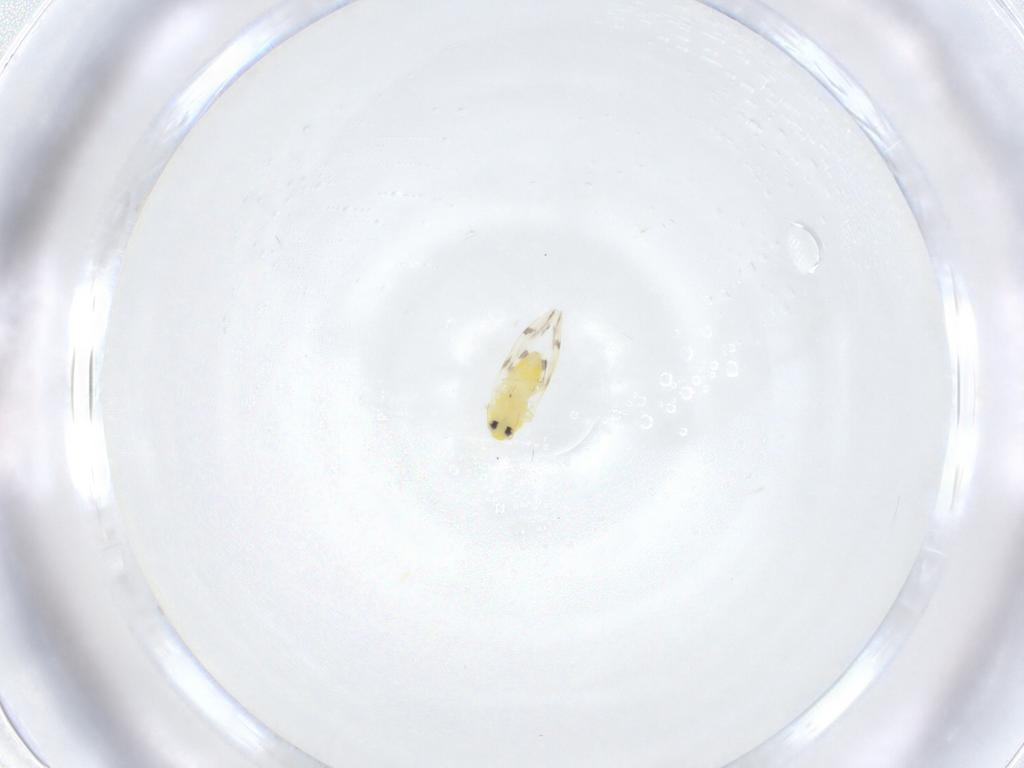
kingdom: Animalia
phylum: Arthropoda
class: Insecta
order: Hemiptera
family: Aleyrodidae
